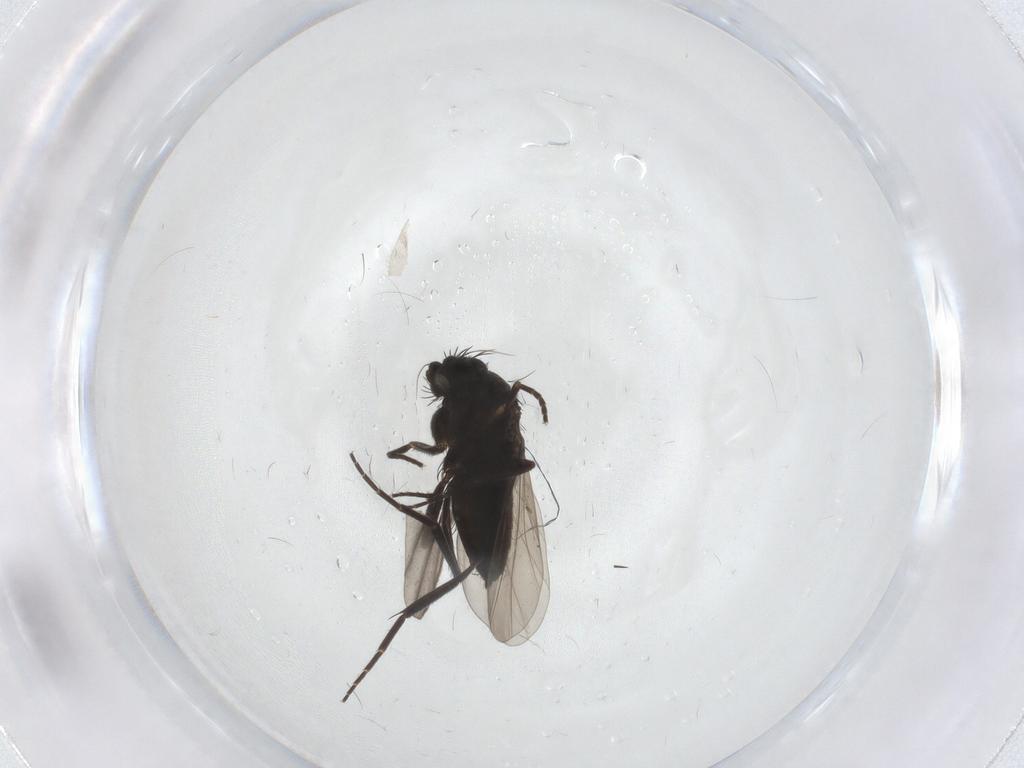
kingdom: Animalia
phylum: Arthropoda
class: Insecta
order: Diptera
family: Phoridae
